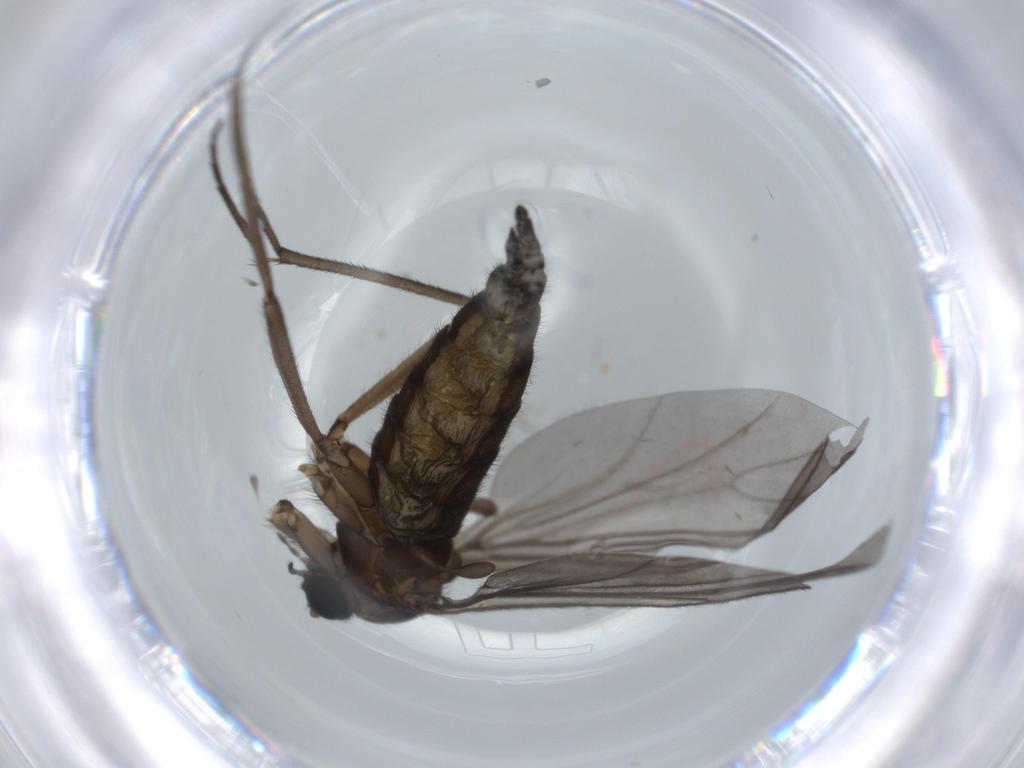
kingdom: Animalia
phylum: Arthropoda
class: Insecta
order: Diptera
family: Sciaridae
